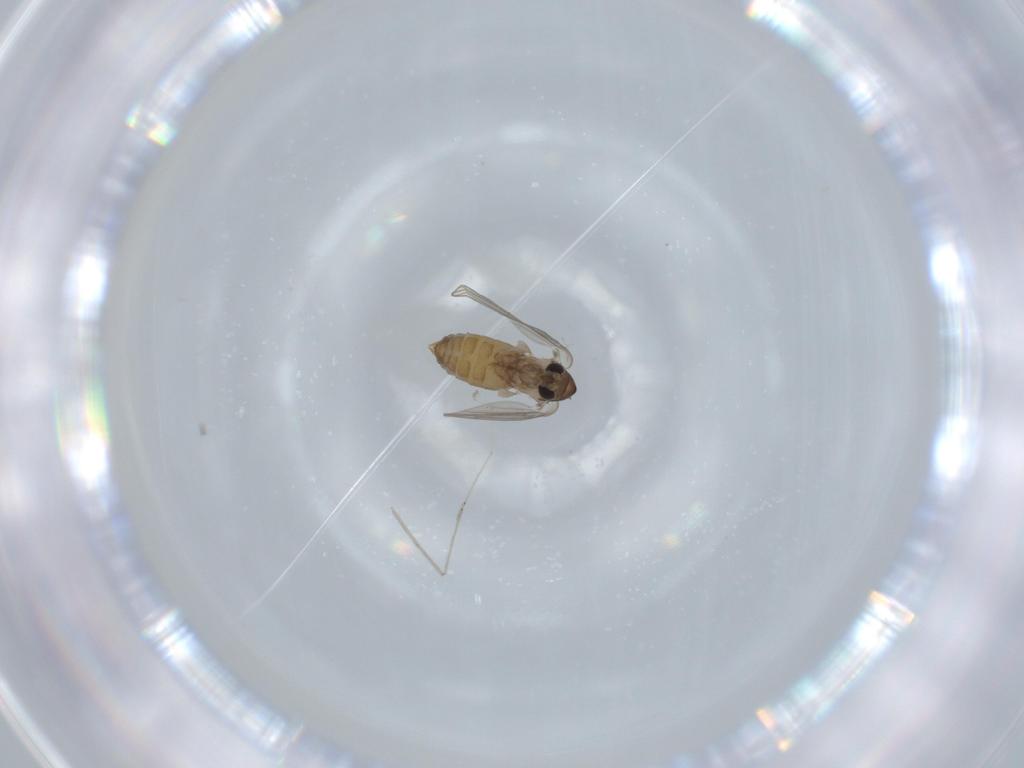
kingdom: Animalia
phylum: Arthropoda
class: Insecta
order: Diptera
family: Psychodidae
